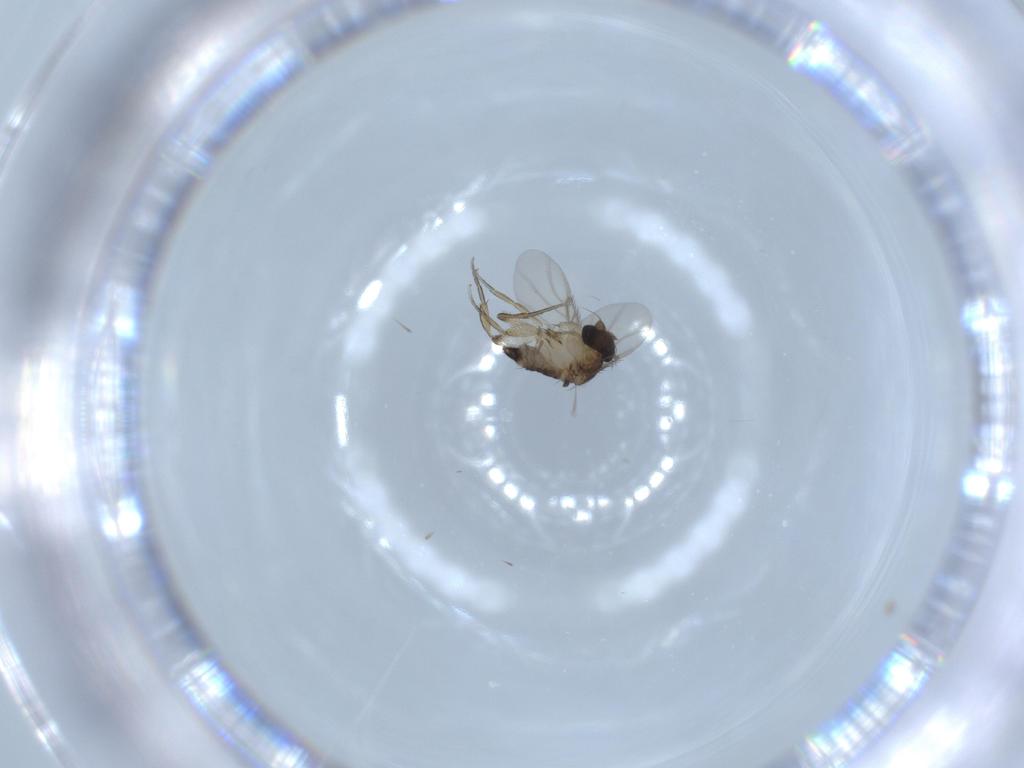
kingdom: Animalia
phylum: Arthropoda
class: Insecta
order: Diptera
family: Phoridae
